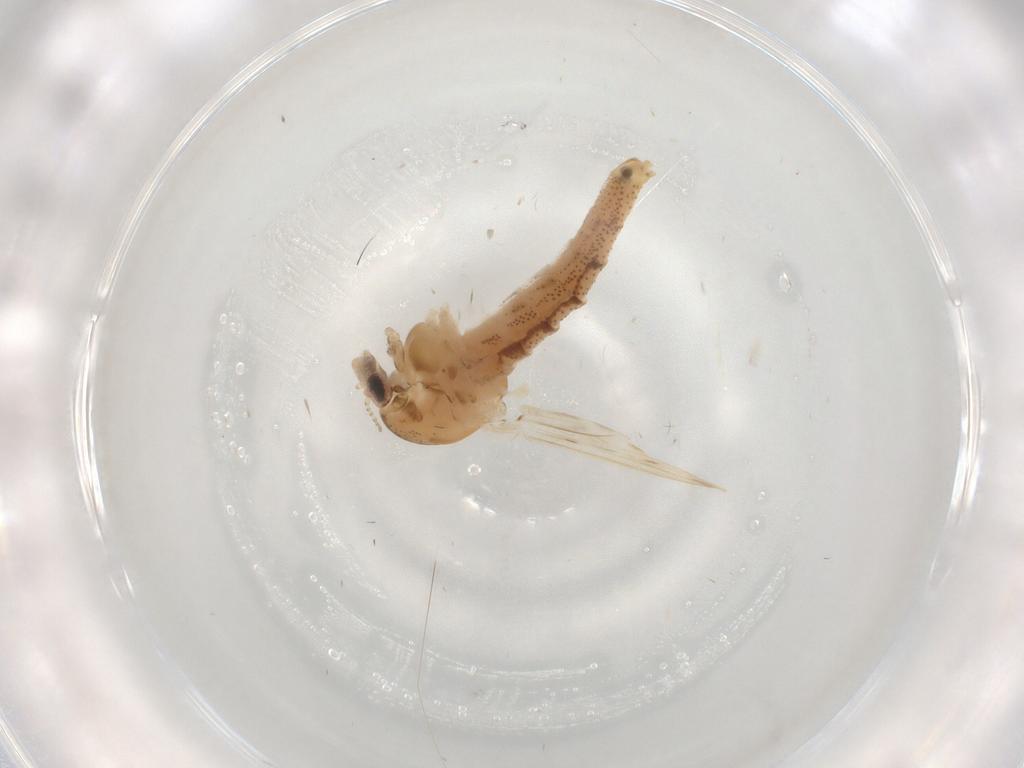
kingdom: Animalia
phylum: Arthropoda
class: Insecta
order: Diptera
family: Chaoboridae
